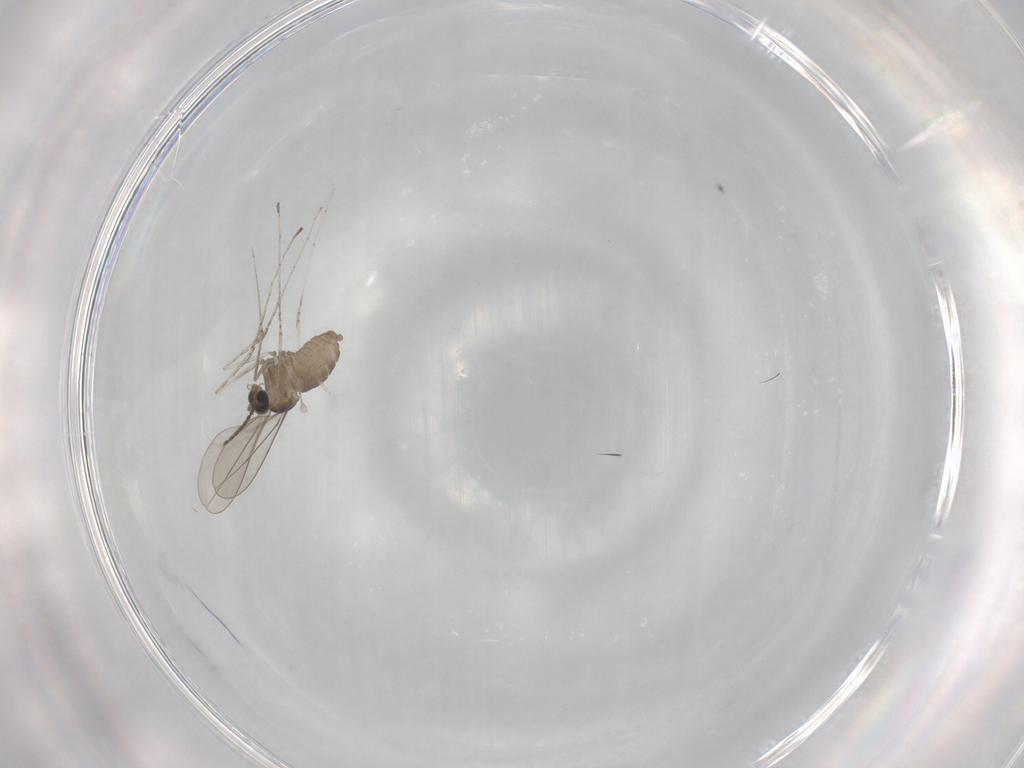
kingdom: Animalia
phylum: Arthropoda
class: Insecta
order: Diptera
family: Cecidomyiidae
